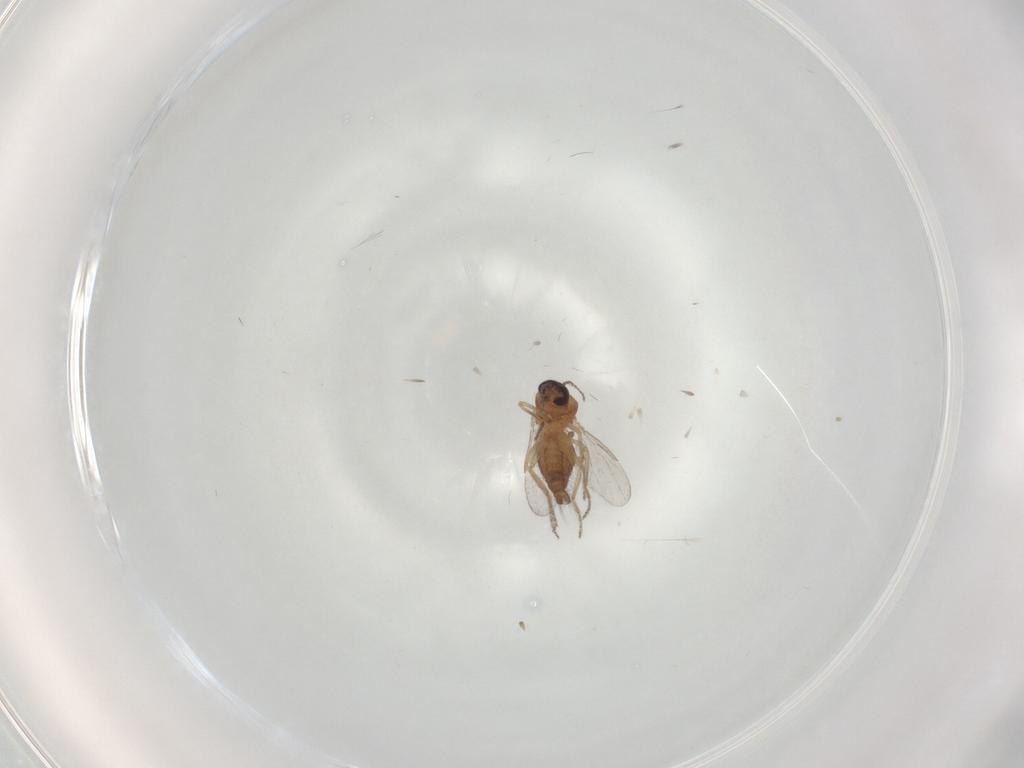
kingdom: Animalia
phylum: Arthropoda
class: Insecta
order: Diptera
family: Ceratopogonidae
